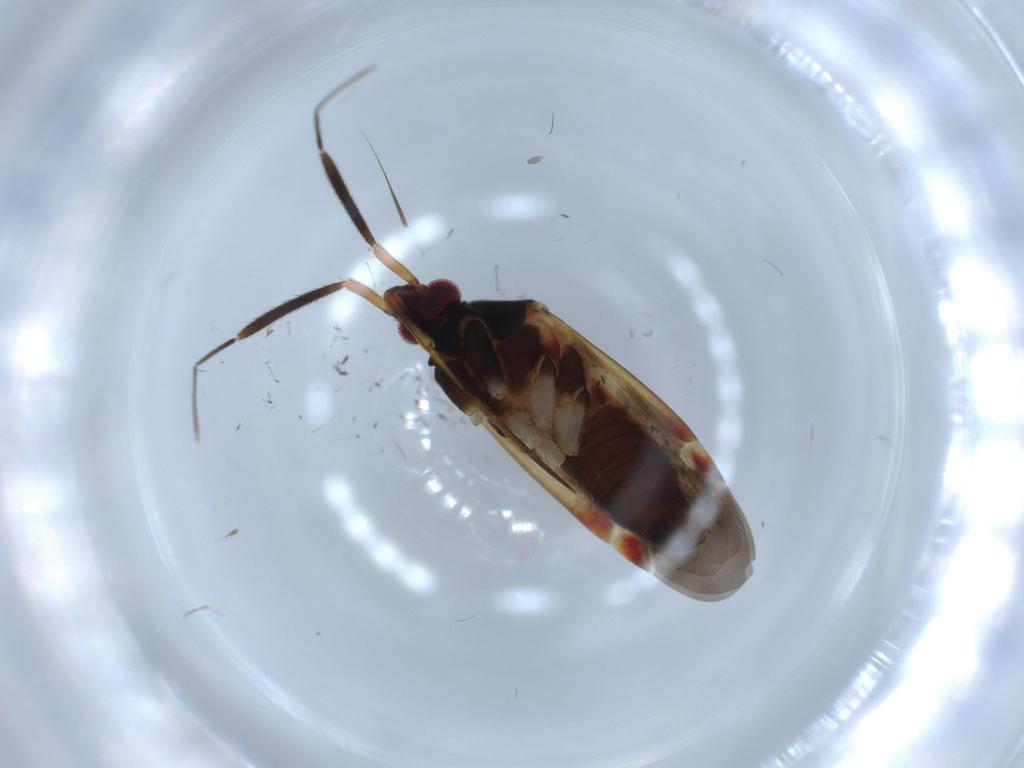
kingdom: Animalia
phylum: Arthropoda
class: Insecta
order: Hemiptera
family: Miridae
